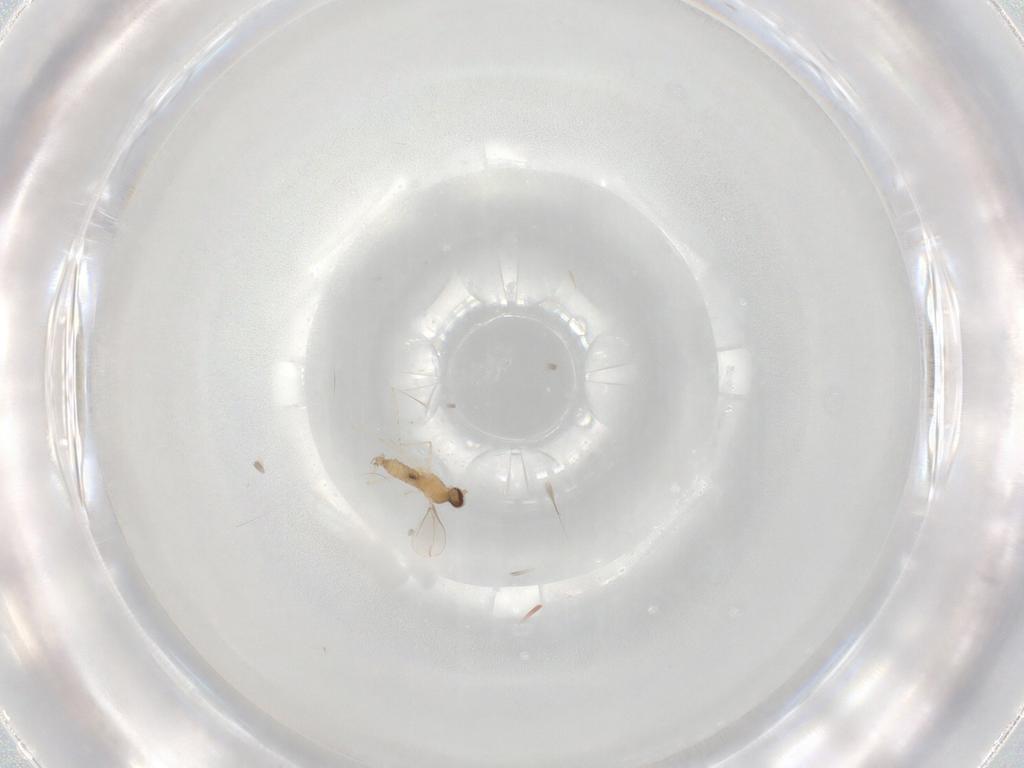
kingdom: Animalia
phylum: Arthropoda
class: Insecta
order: Diptera
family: Cecidomyiidae
